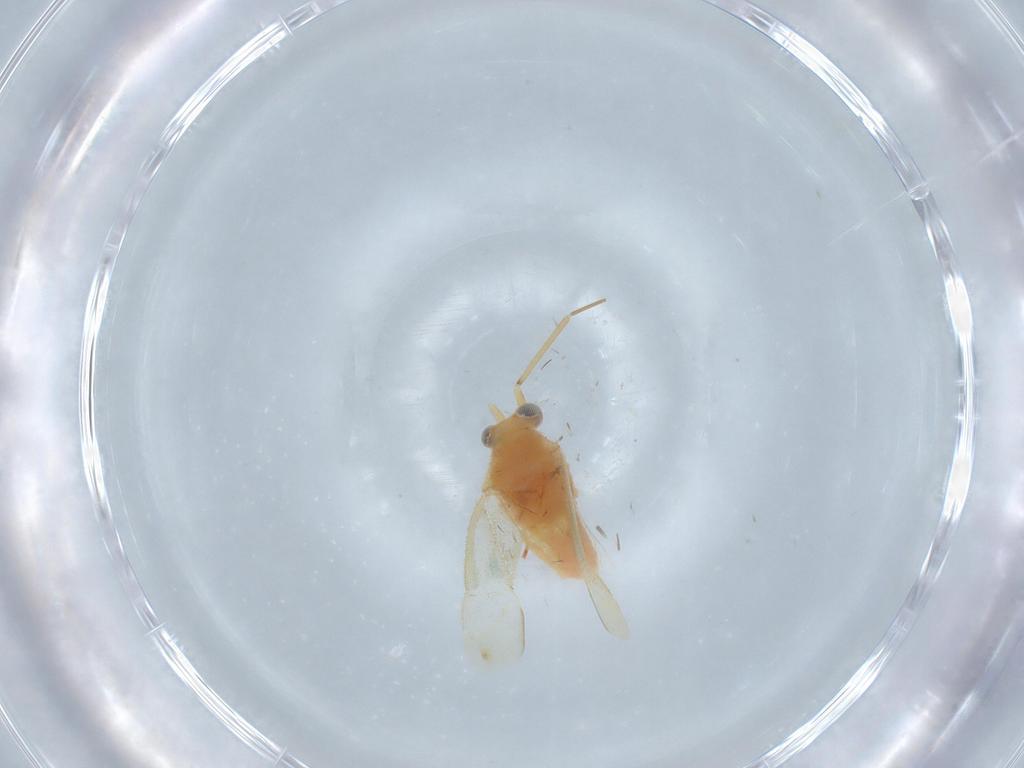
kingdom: Animalia
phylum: Arthropoda
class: Insecta
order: Hemiptera
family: Miridae
